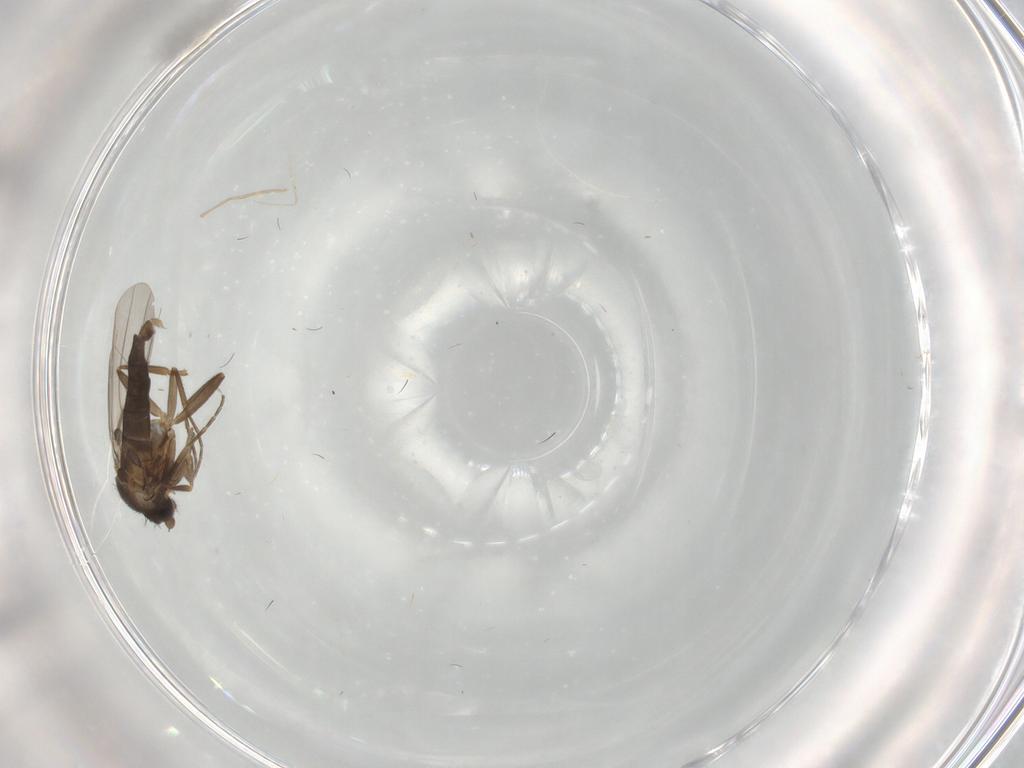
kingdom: Animalia
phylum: Arthropoda
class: Insecta
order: Diptera
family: Phoridae
